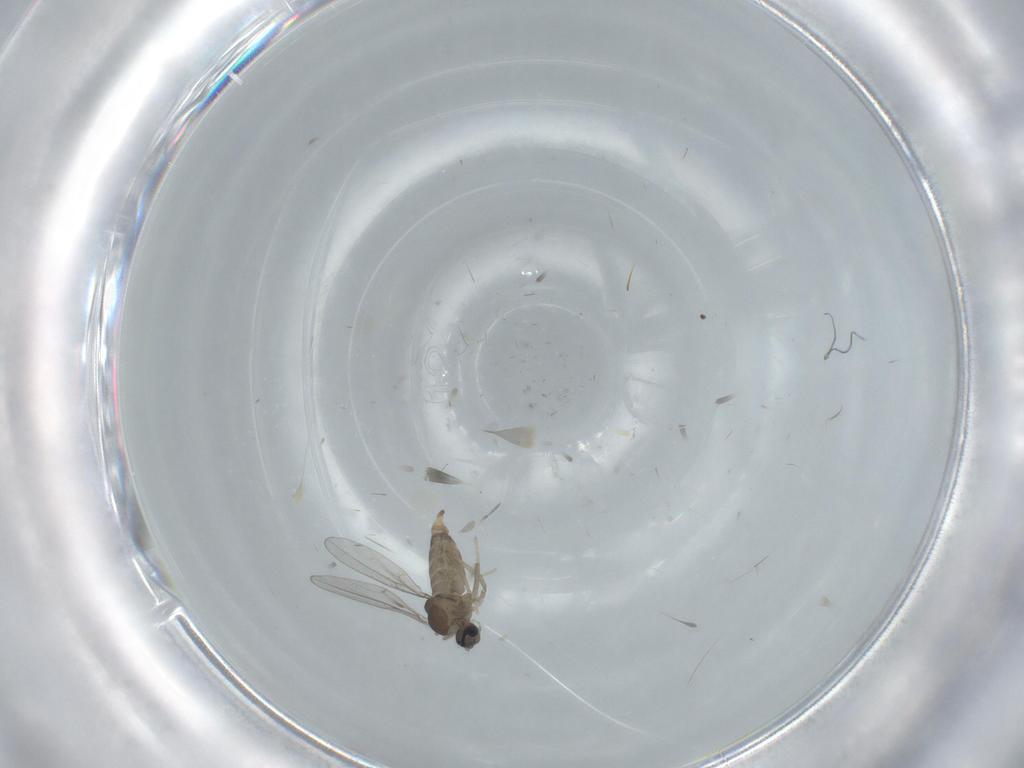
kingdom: Animalia
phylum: Arthropoda
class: Insecta
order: Diptera
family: Milichiidae
